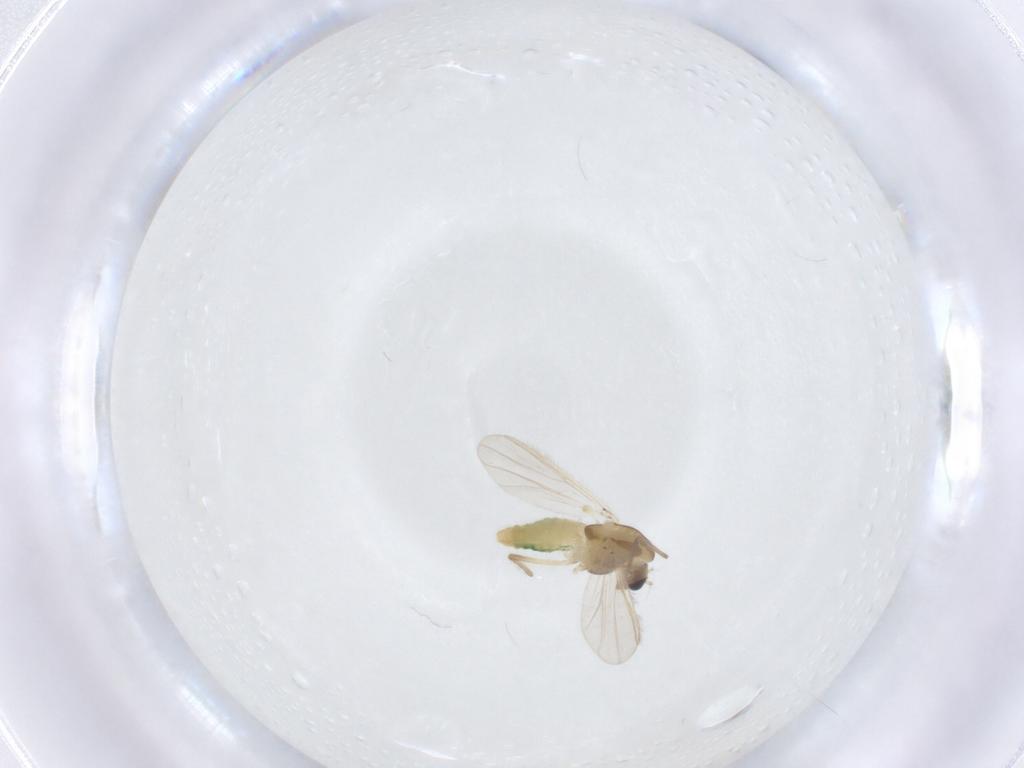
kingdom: Animalia
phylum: Arthropoda
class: Insecta
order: Diptera
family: Chironomidae
